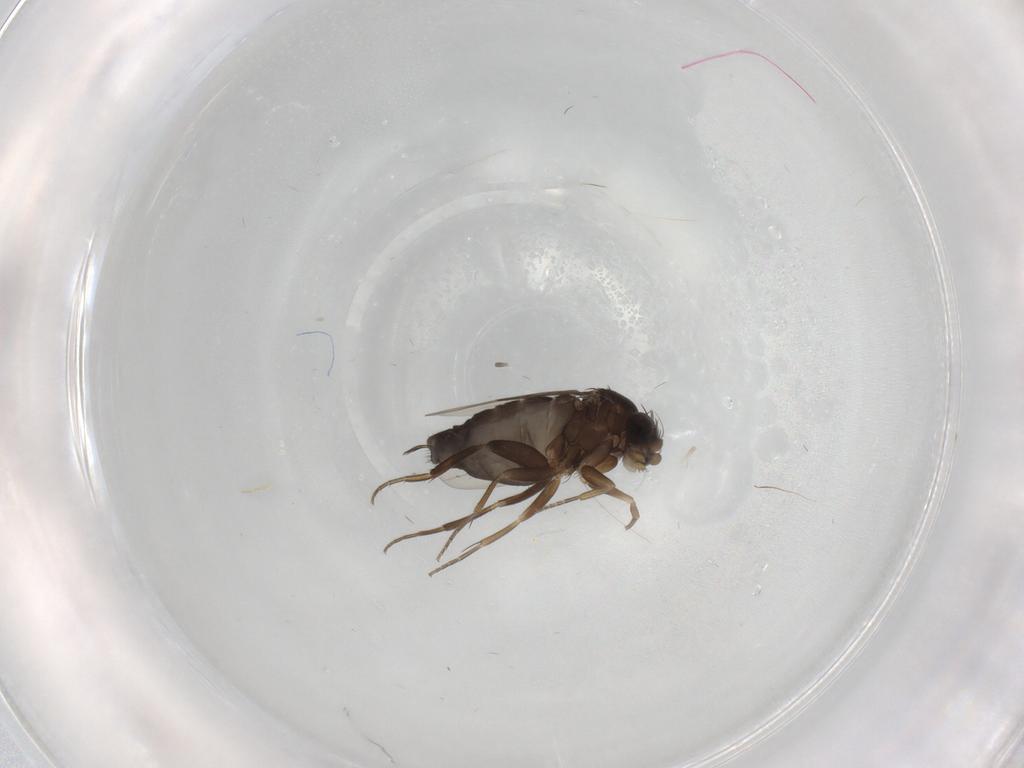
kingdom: Animalia
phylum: Arthropoda
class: Insecta
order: Diptera
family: Phoridae
